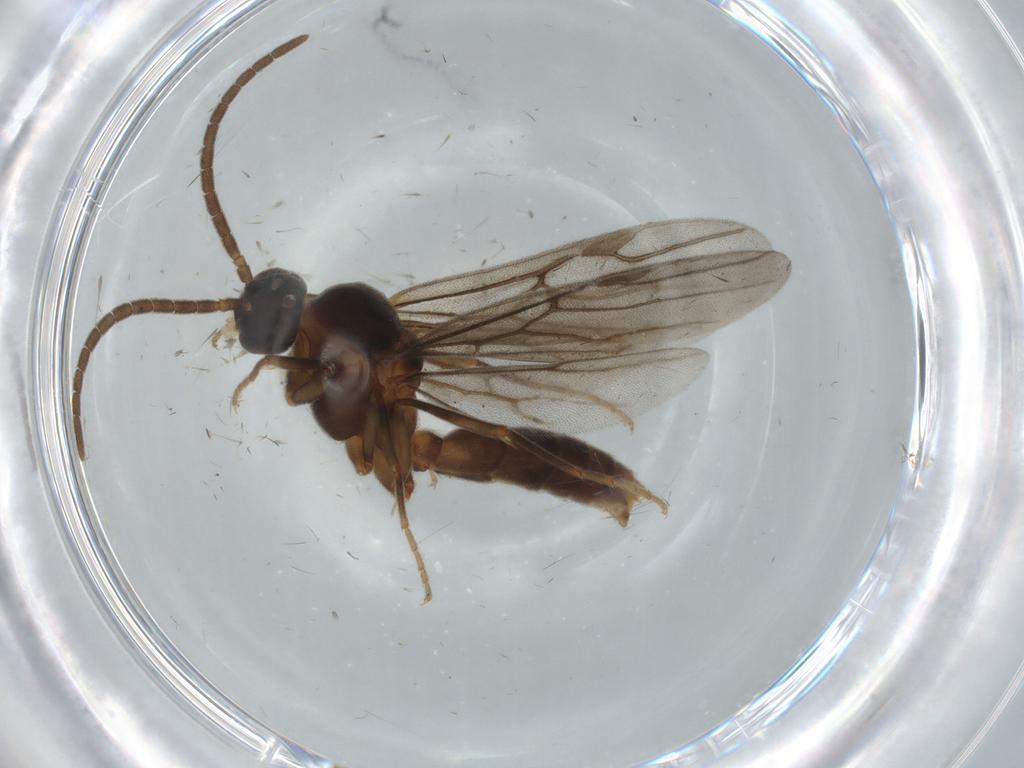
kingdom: Animalia
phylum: Arthropoda
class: Insecta
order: Hymenoptera
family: Formicidae
